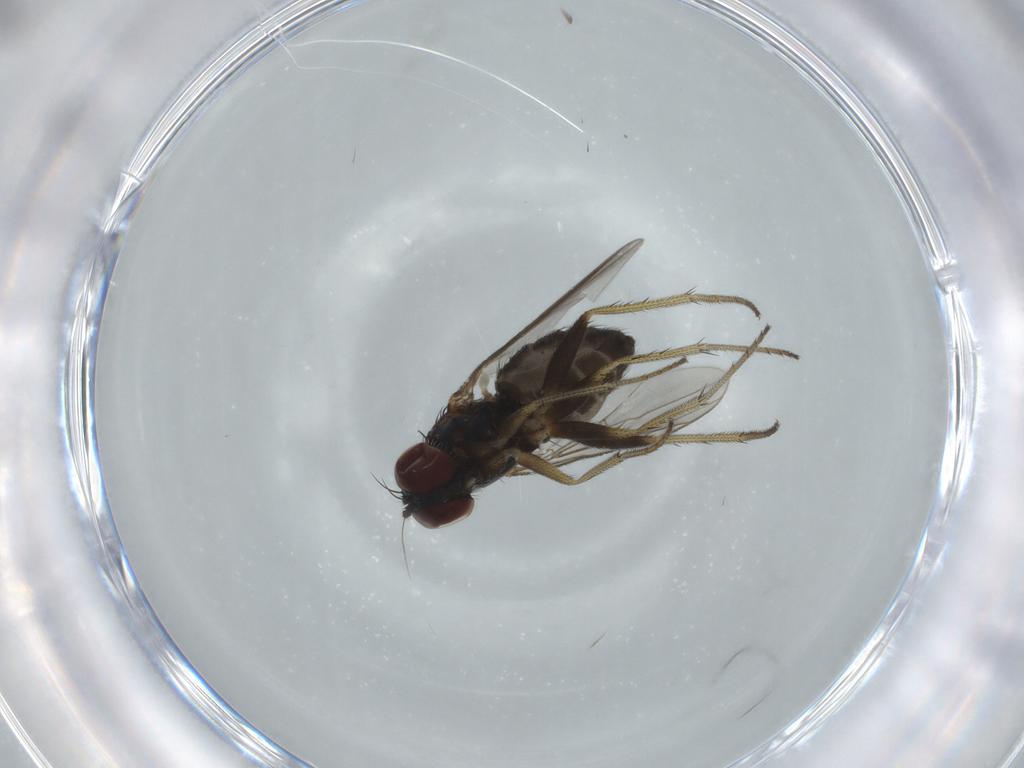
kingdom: Animalia
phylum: Arthropoda
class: Insecta
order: Diptera
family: Dolichopodidae
